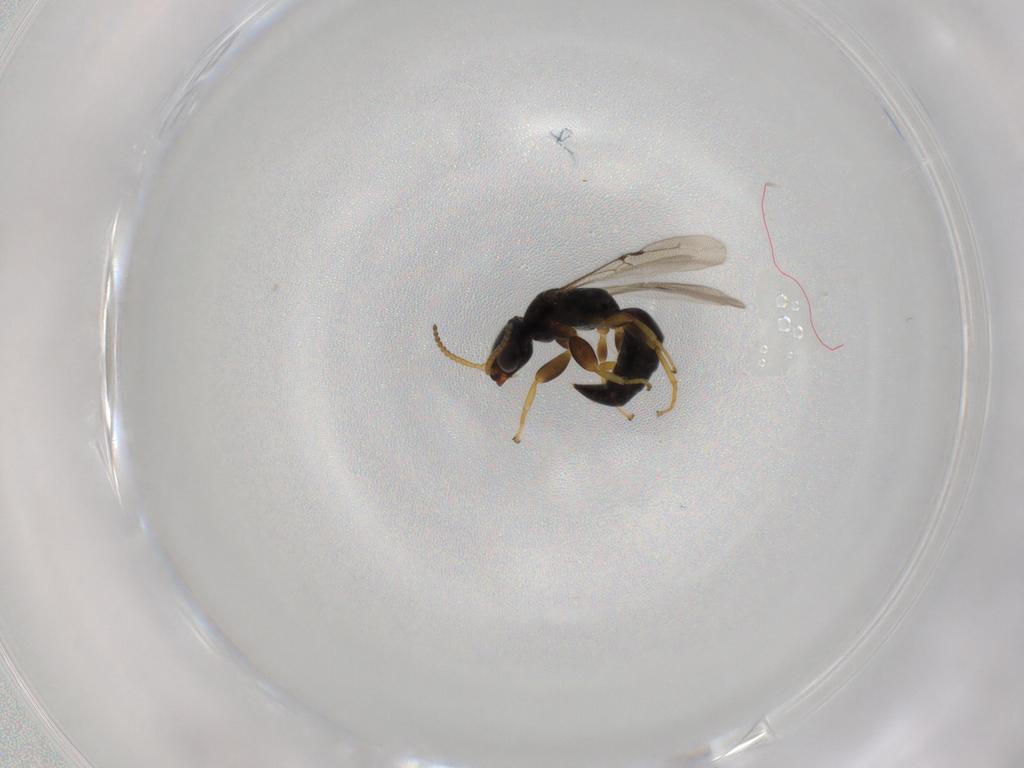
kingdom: Animalia
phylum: Arthropoda
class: Insecta
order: Hymenoptera
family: Bethylidae
